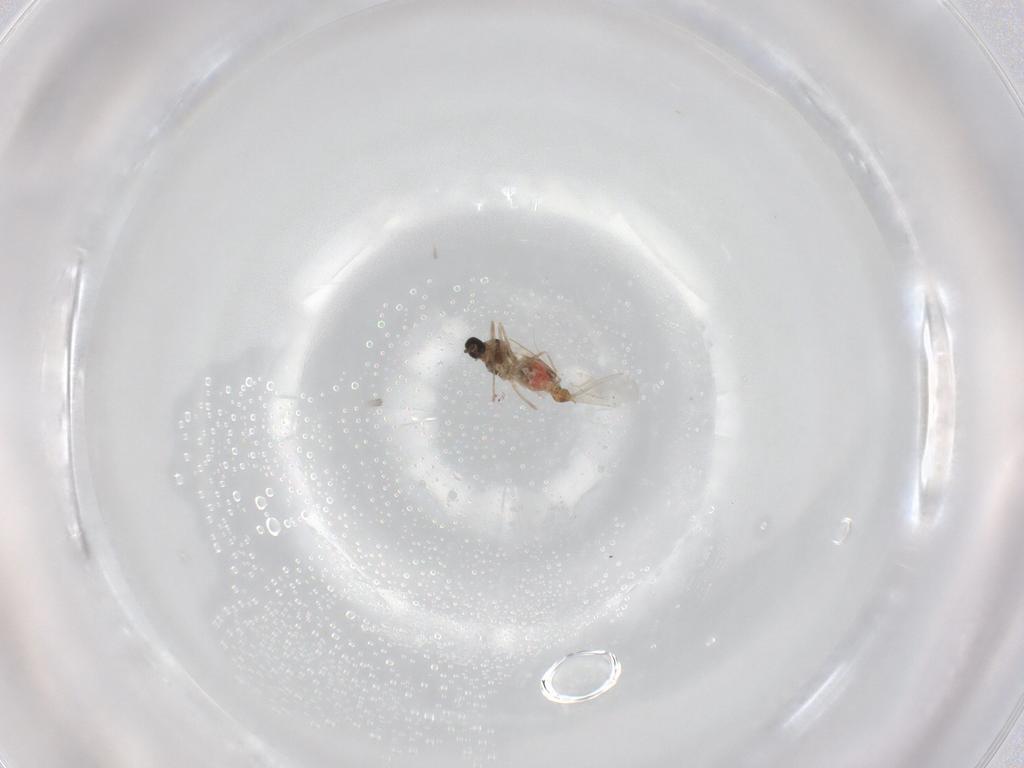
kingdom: Animalia
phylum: Arthropoda
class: Insecta
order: Diptera
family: Cecidomyiidae
